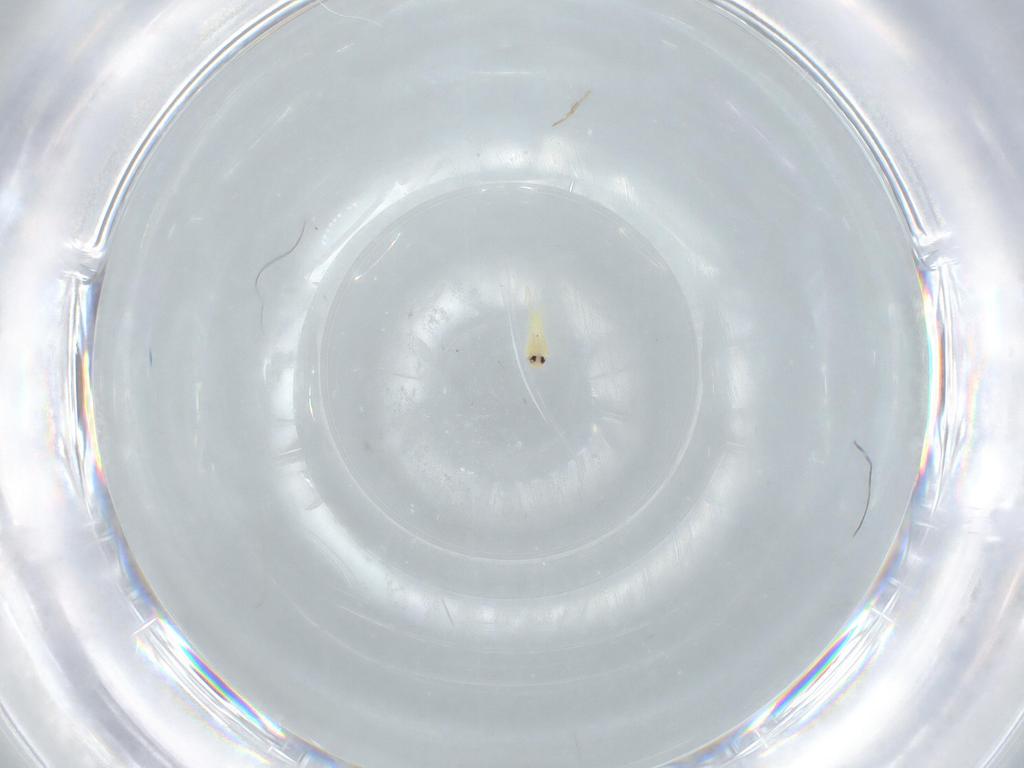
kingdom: Animalia
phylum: Arthropoda
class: Insecta
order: Hemiptera
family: Aleyrodidae
